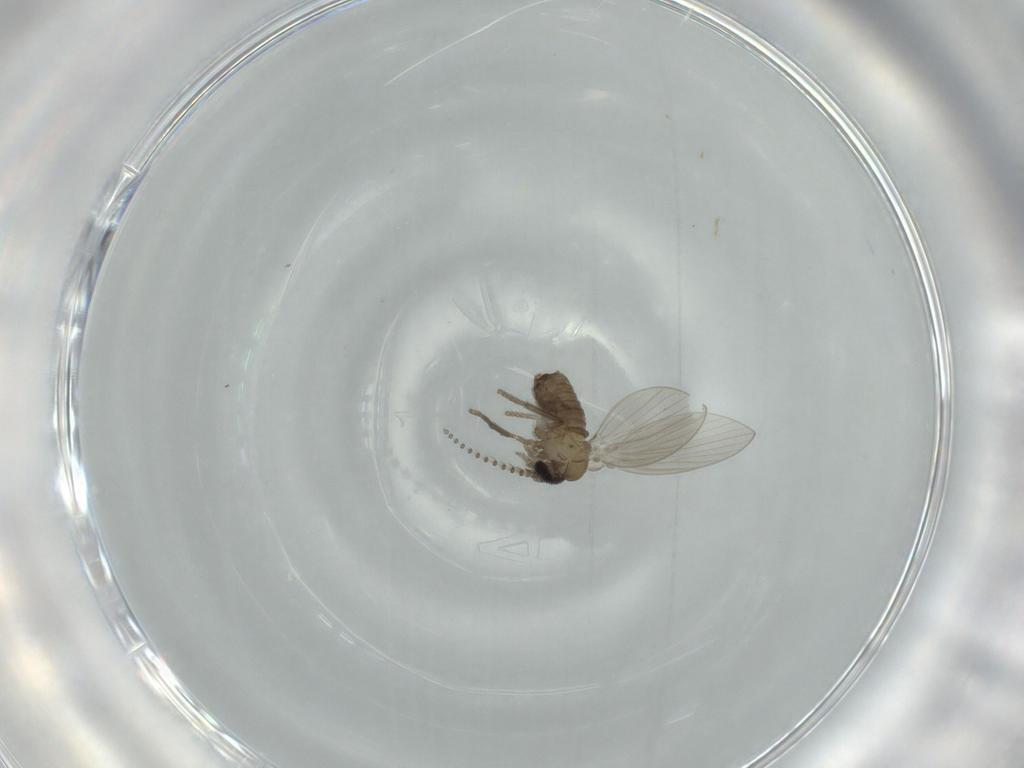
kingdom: Animalia
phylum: Arthropoda
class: Insecta
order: Diptera
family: Psychodidae
